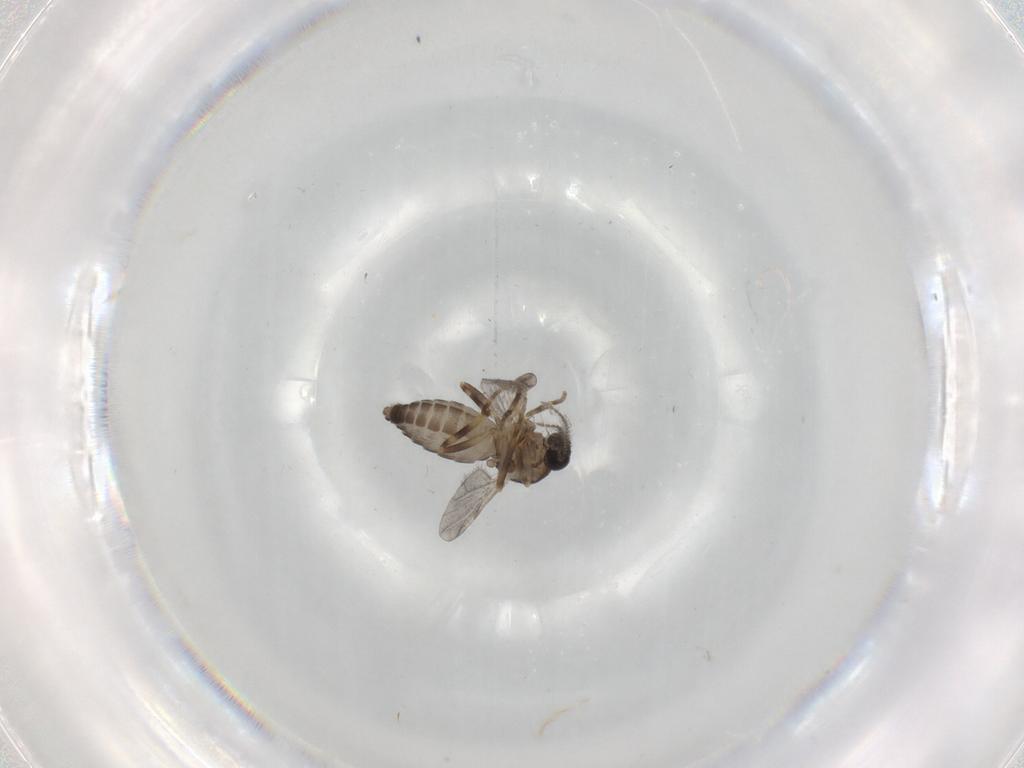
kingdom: Animalia
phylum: Arthropoda
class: Insecta
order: Diptera
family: Ceratopogonidae
